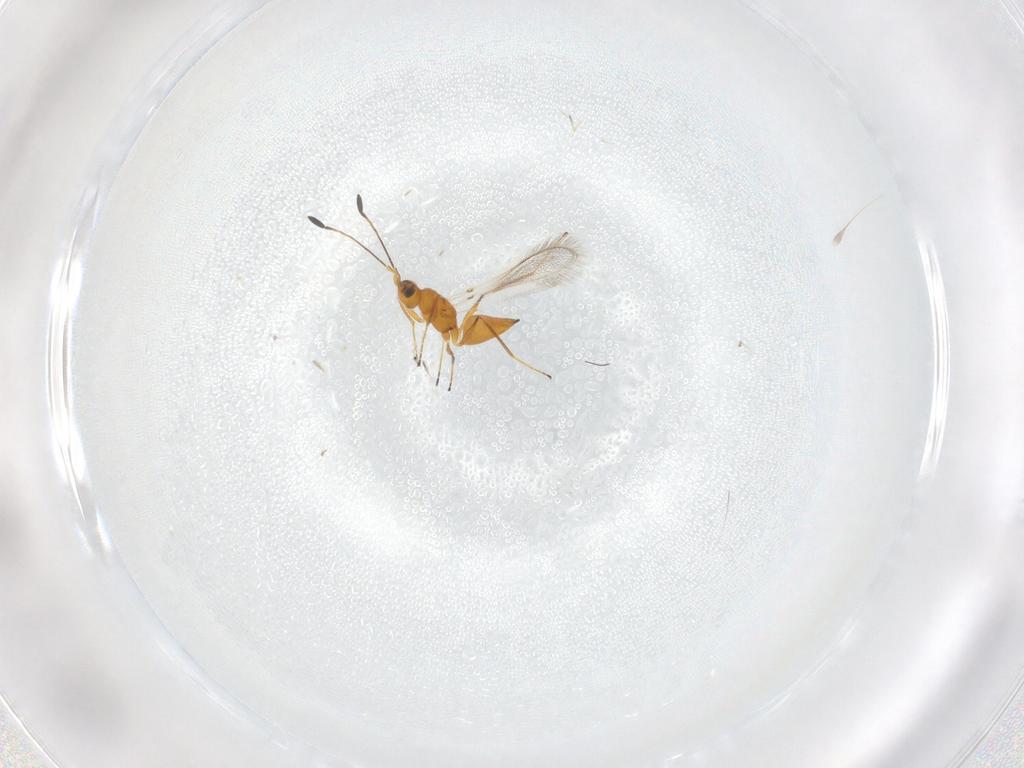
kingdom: Animalia
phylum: Arthropoda
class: Insecta
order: Hymenoptera
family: Mymaridae
